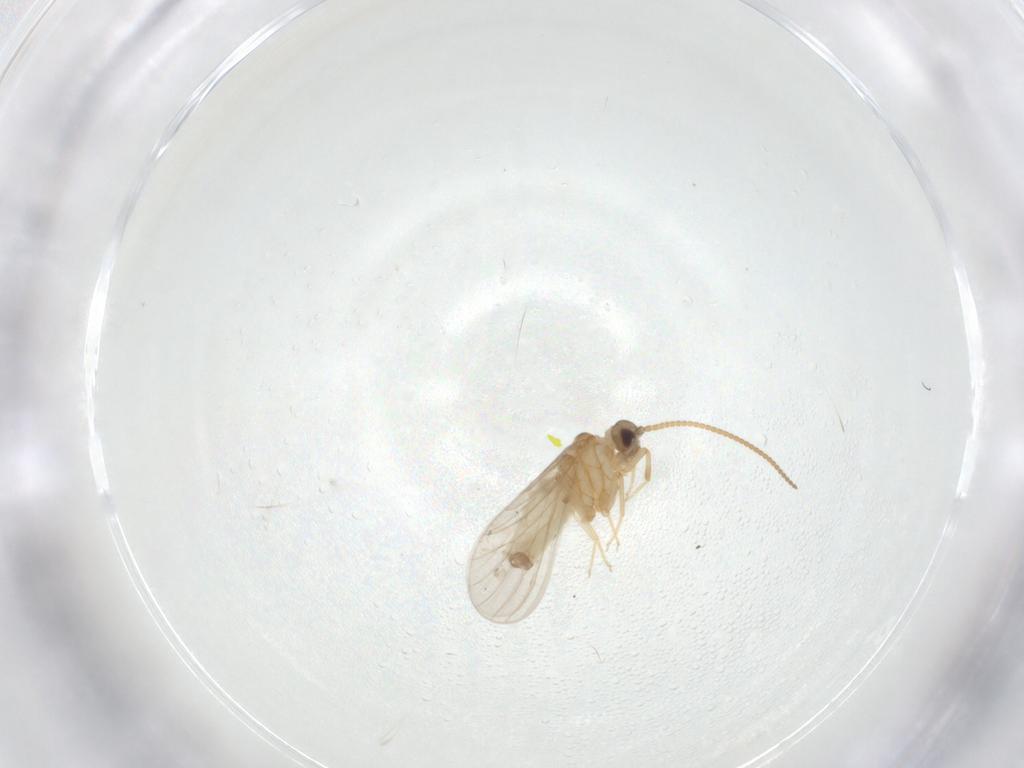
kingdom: Animalia
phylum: Arthropoda
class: Insecta
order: Neuroptera
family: Coniopterygidae
